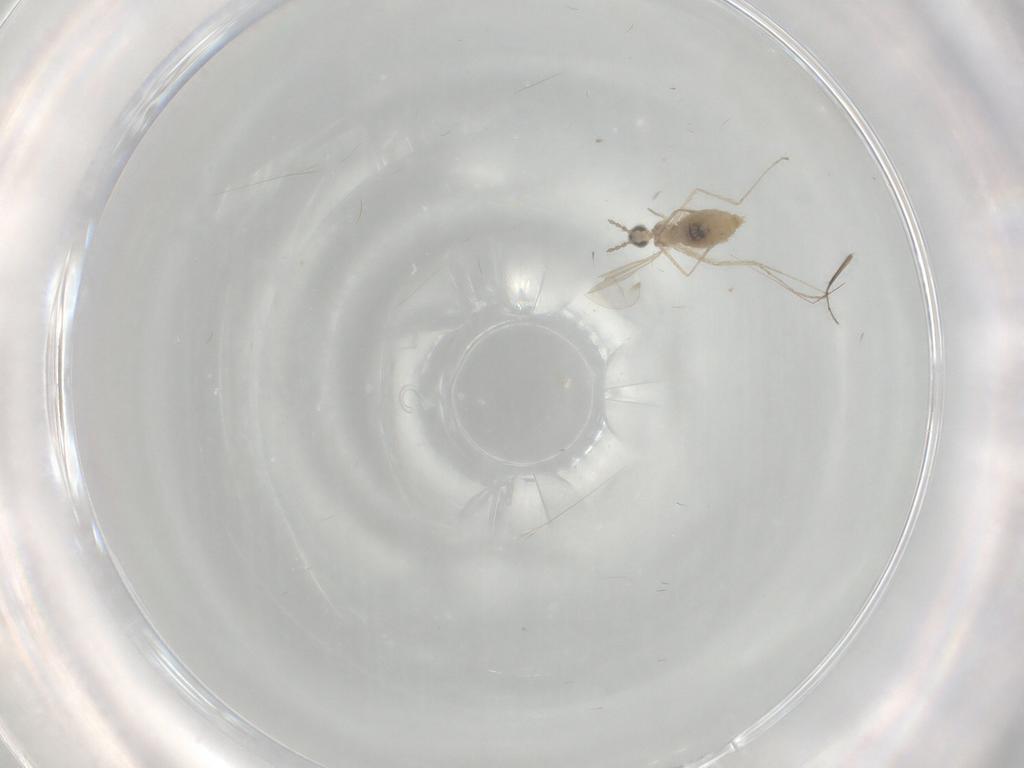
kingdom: Animalia
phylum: Arthropoda
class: Insecta
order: Diptera
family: Cecidomyiidae
